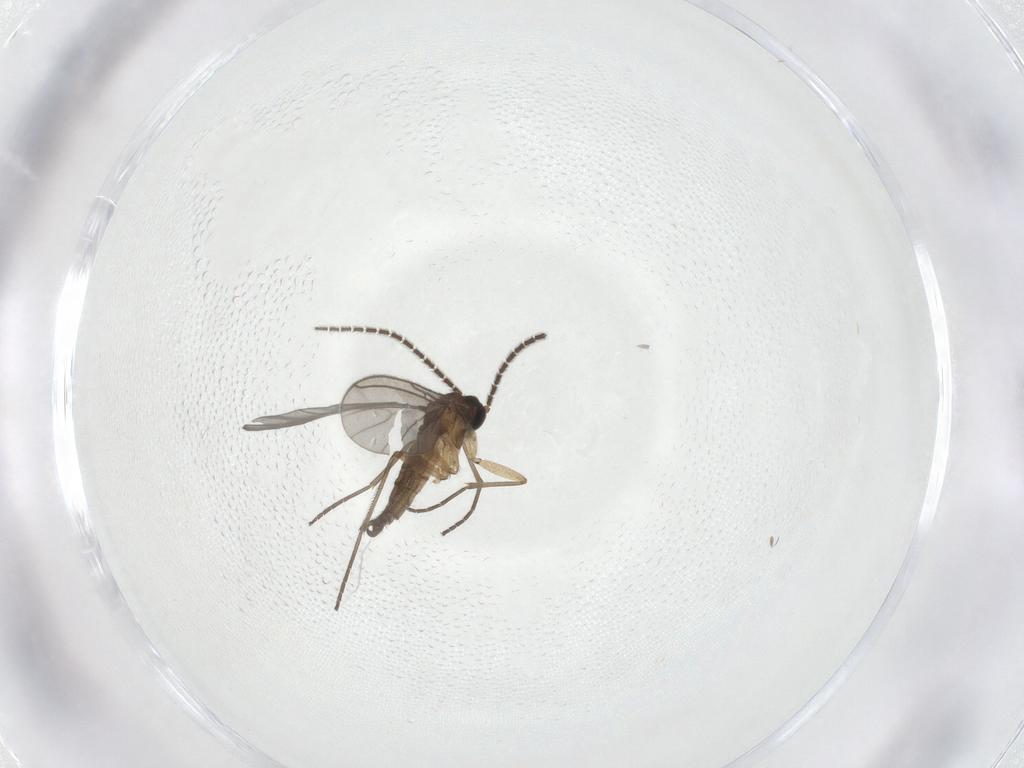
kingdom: Animalia
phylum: Arthropoda
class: Insecta
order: Diptera
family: Sciaridae
